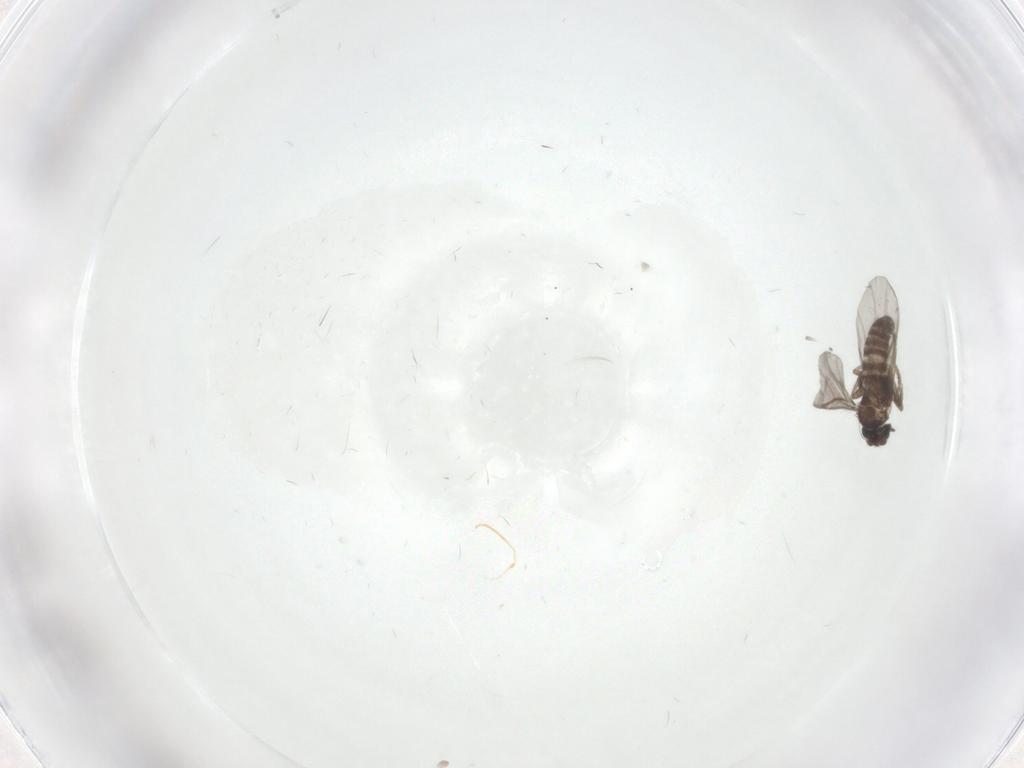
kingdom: Animalia
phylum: Arthropoda
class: Insecta
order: Diptera
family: Cecidomyiidae
